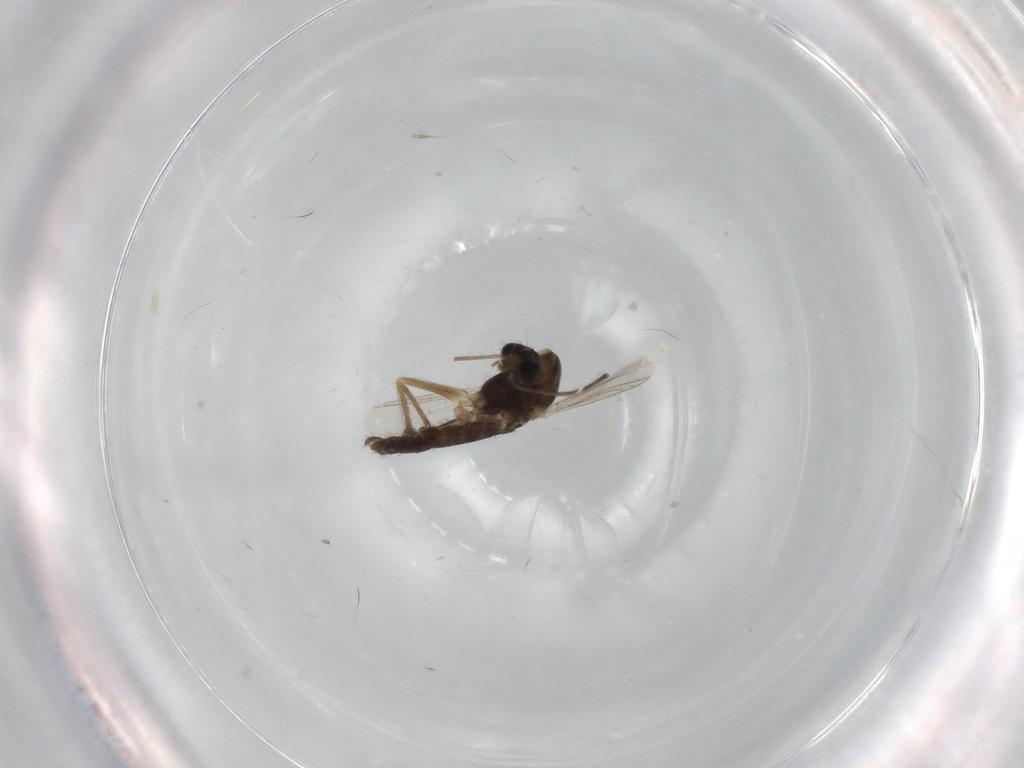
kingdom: Animalia
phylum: Arthropoda
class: Insecta
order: Diptera
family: Chironomidae
